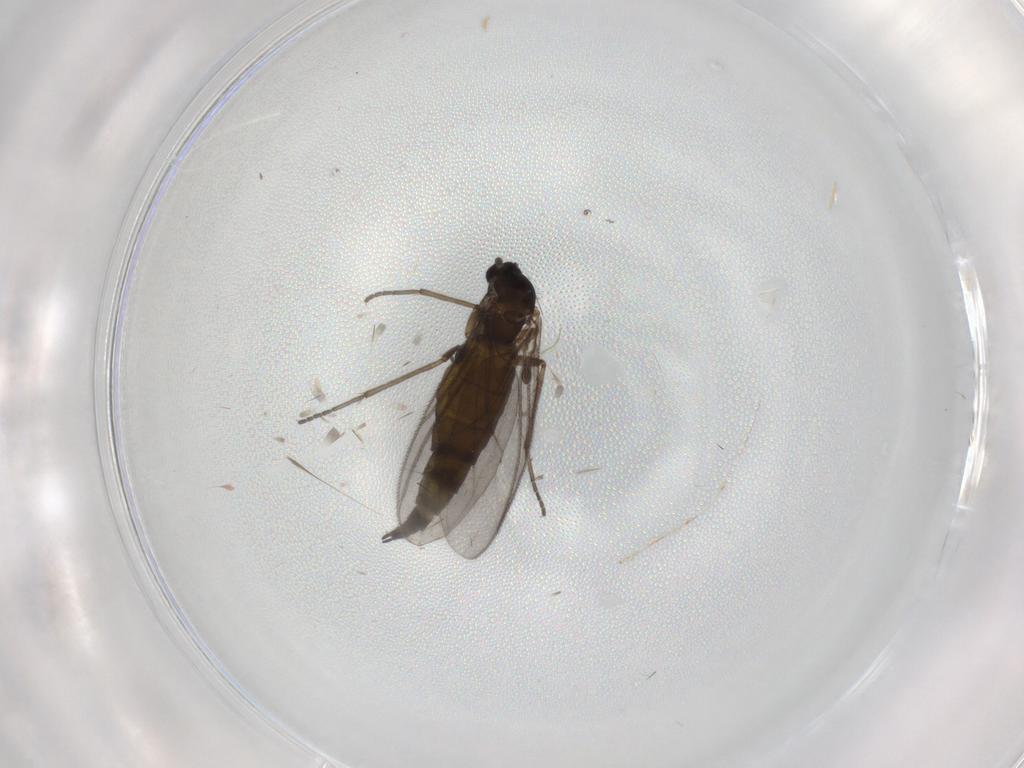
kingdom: Animalia
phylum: Arthropoda
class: Insecta
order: Diptera
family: Sciaridae
